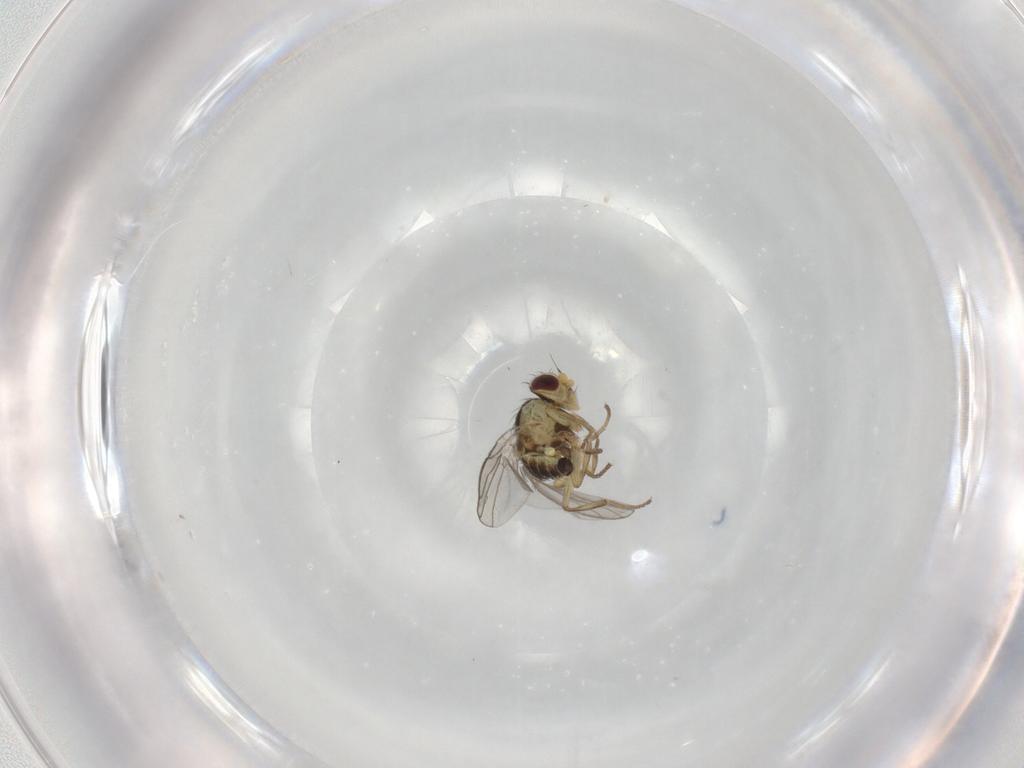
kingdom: Animalia
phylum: Arthropoda
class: Insecta
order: Diptera
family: Agromyzidae
